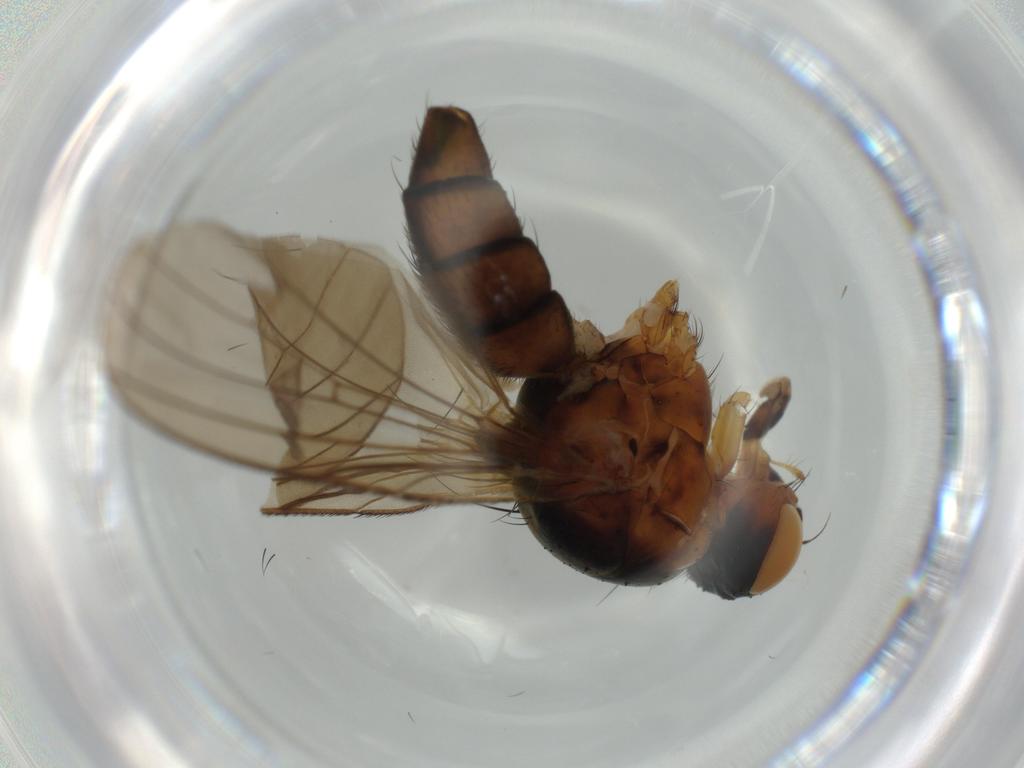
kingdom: Animalia
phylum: Arthropoda
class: Insecta
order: Diptera
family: Anthomyiidae
